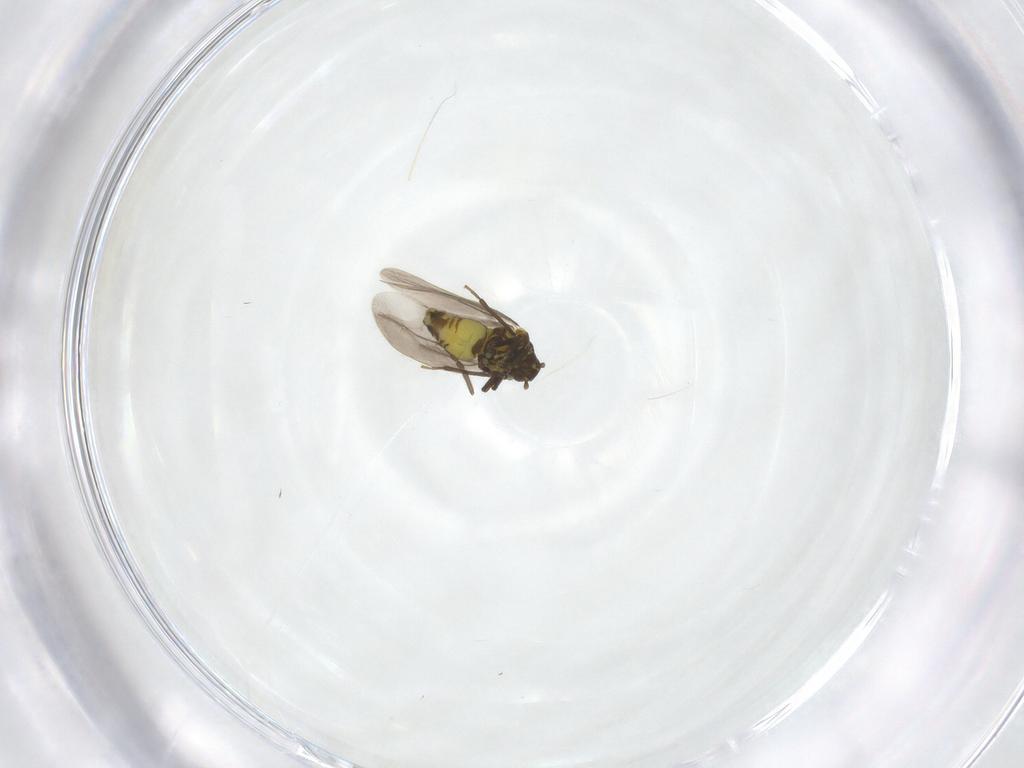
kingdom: Animalia
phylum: Arthropoda
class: Insecta
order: Hemiptera
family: Aleyrodidae
